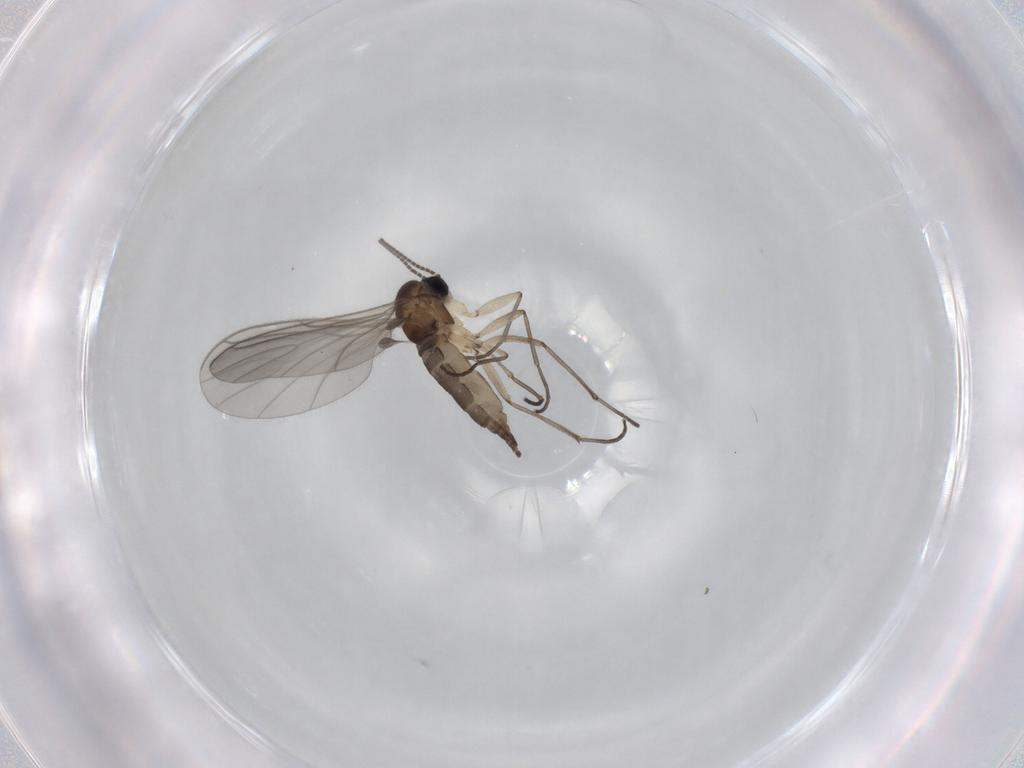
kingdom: Animalia
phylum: Arthropoda
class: Insecta
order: Diptera
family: Sciaridae
